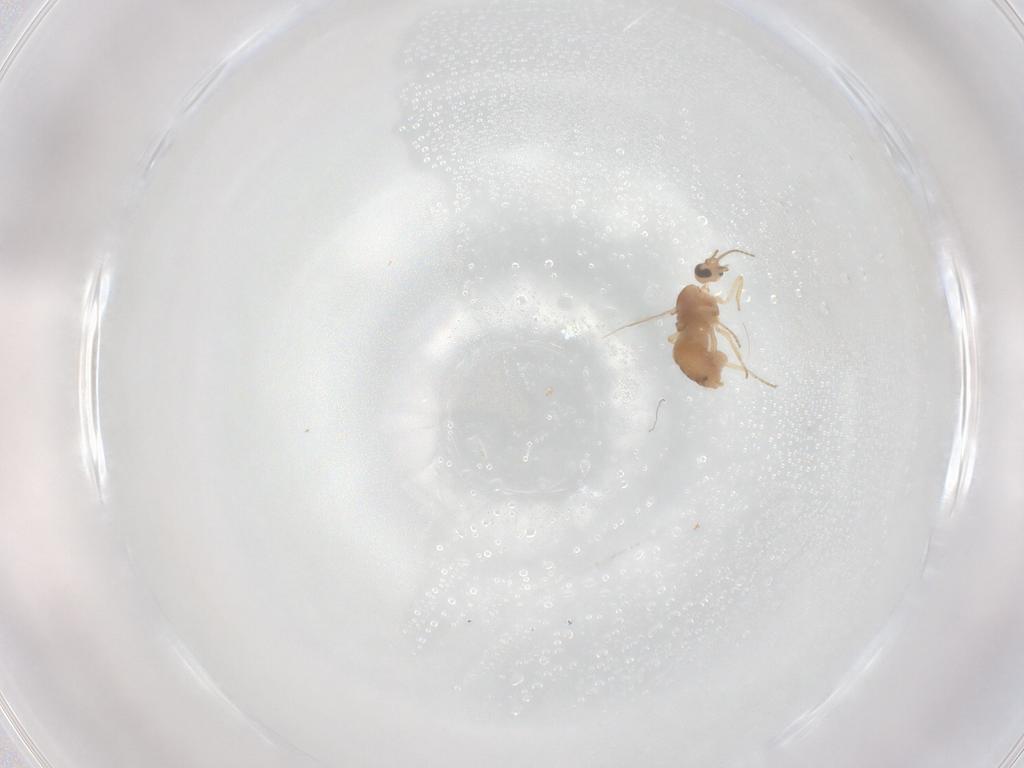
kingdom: Animalia
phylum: Arthropoda
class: Insecta
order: Diptera
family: Ceratopogonidae
